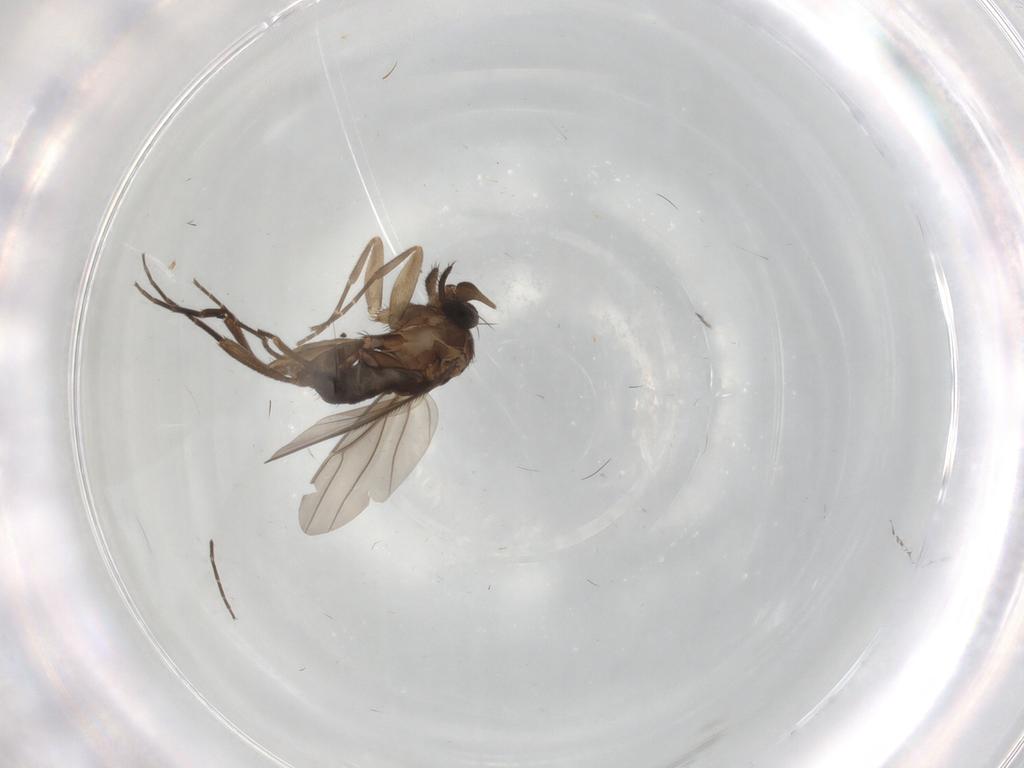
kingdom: Animalia
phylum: Arthropoda
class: Insecta
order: Diptera
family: Phoridae
